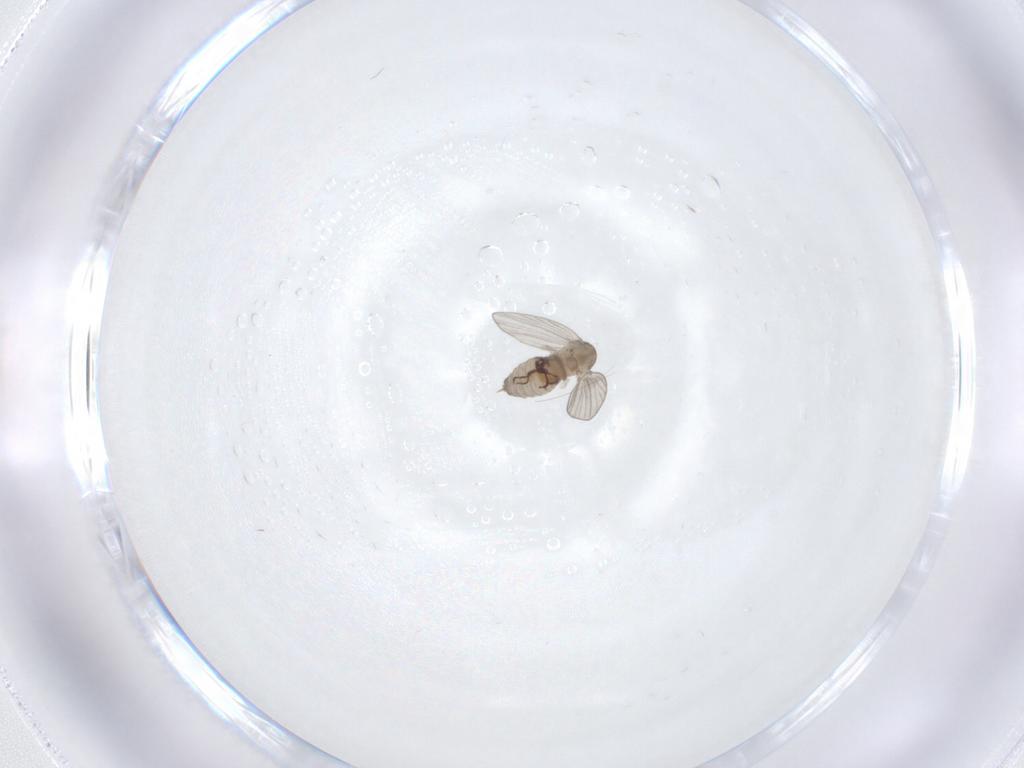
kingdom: Animalia
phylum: Arthropoda
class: Insecta
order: Diptera
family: Psychodidae
